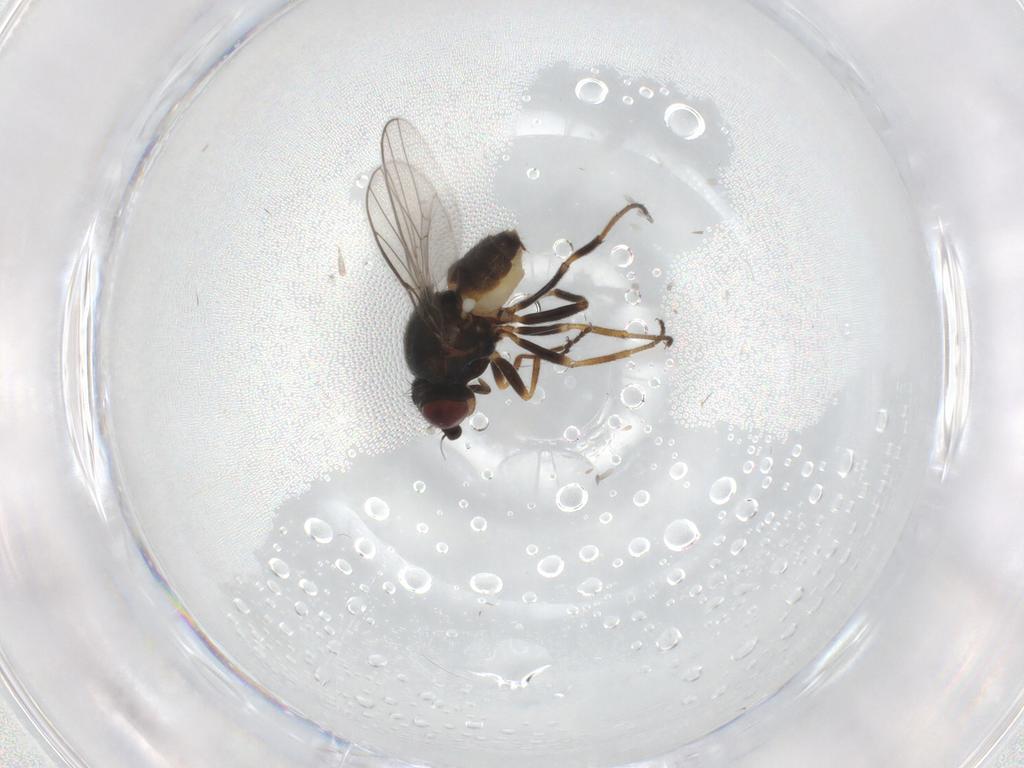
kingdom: Animalia
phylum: Arthropoda
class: Insecta
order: Diptera
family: Chloropidae
